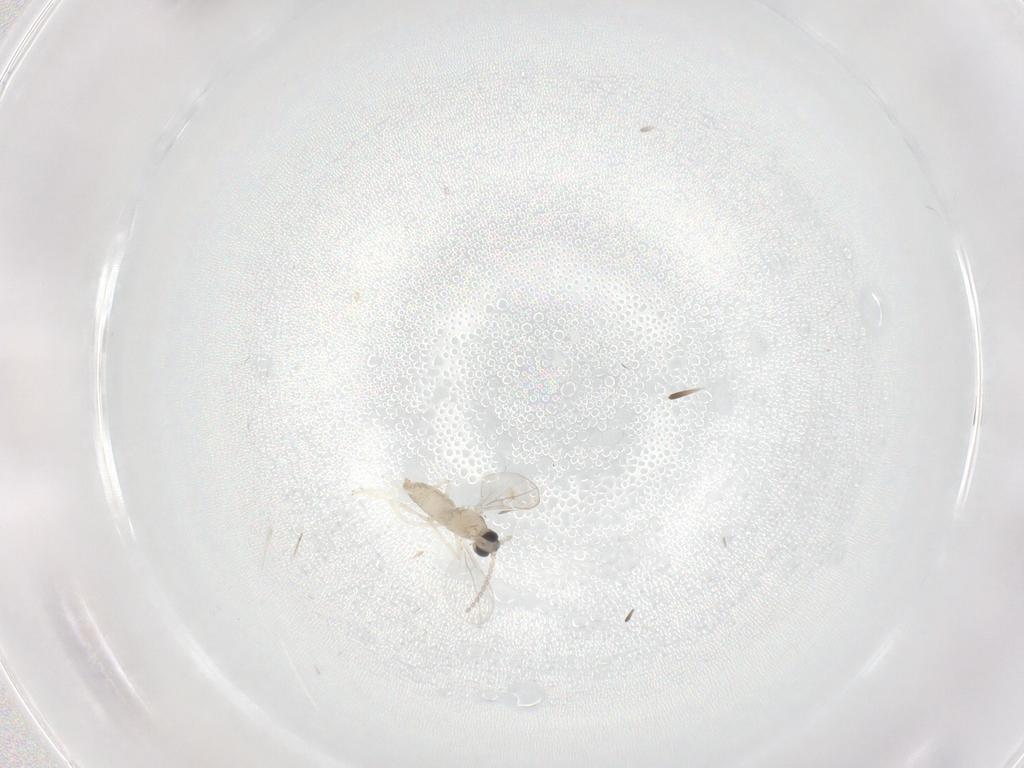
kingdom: Animalia
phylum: Arthropoda
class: Insecta
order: Diptera
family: Cecidomyiidae
